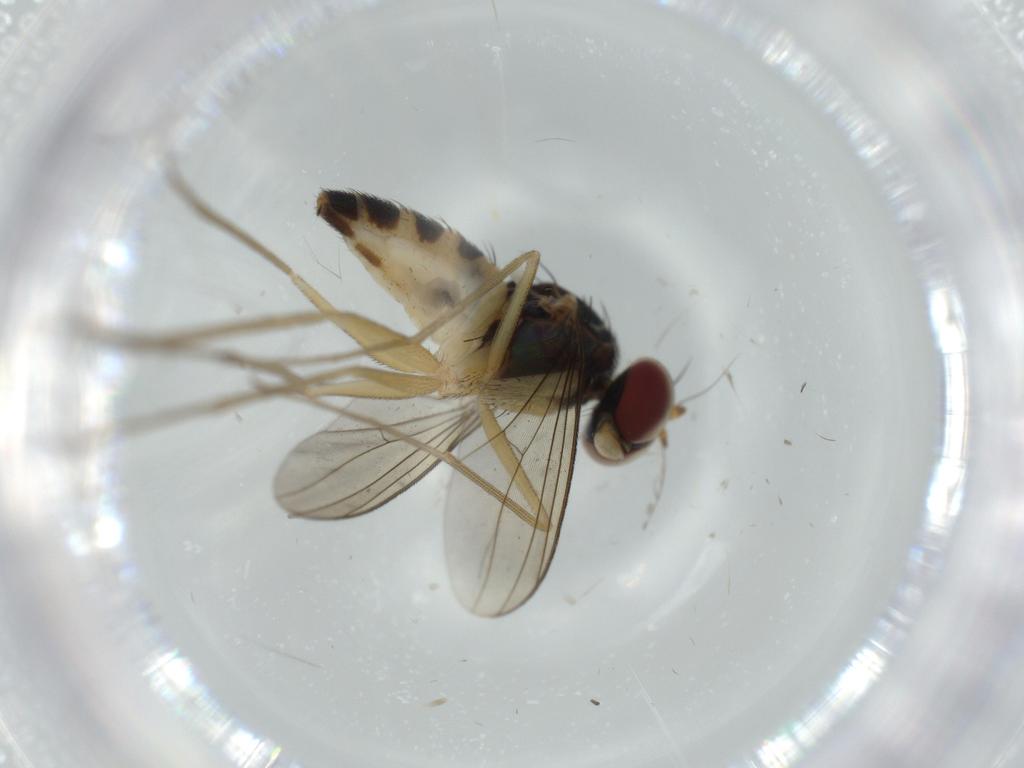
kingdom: Animalia
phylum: Arthropoda
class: Insecta
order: Diptera
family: Dolichopodidae
